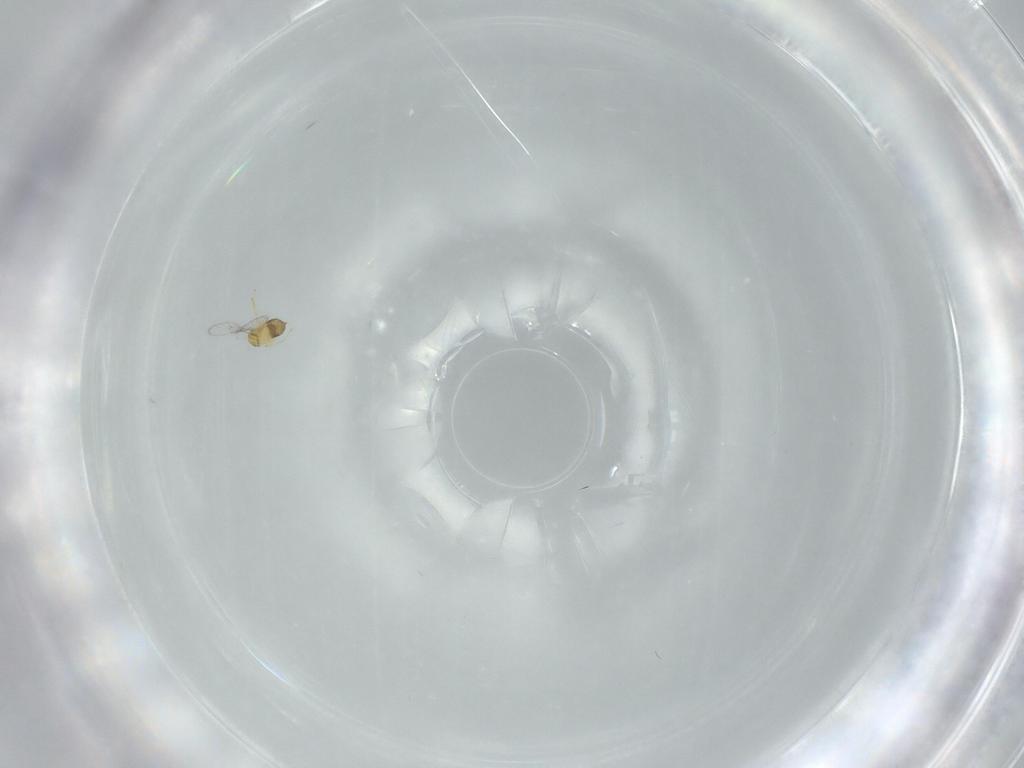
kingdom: Animalia
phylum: Arthropoda
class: Insecta
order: Hymenoptera
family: Trichogrammatidae
